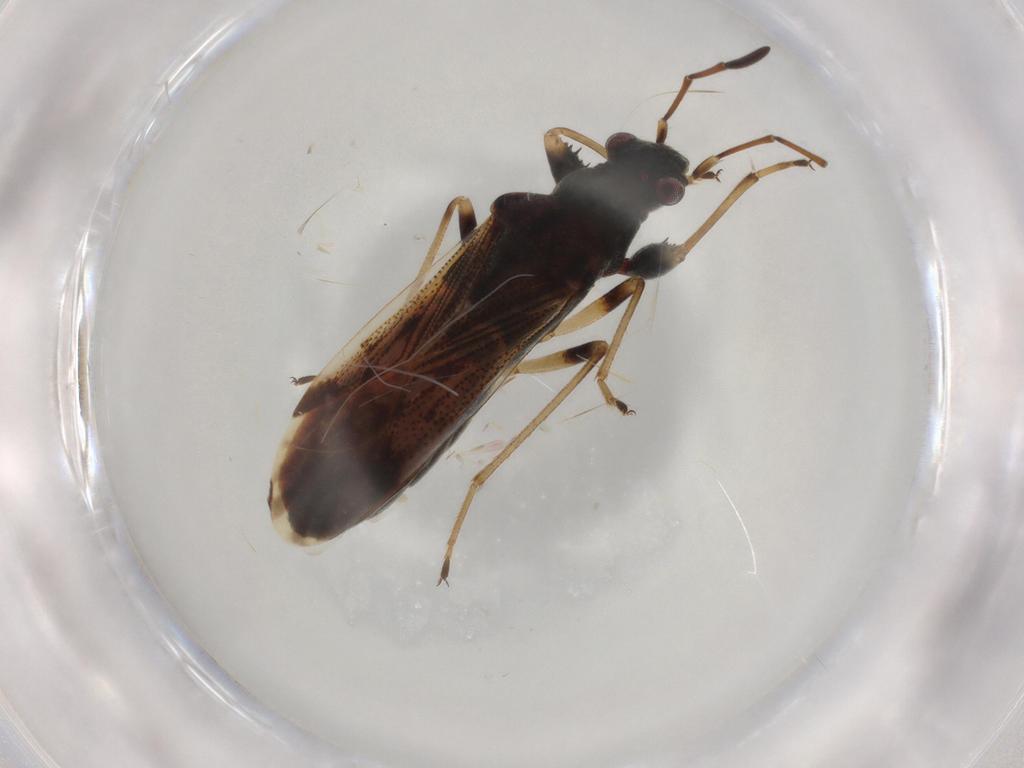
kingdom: Animalia
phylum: Arthropoda
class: Insecta
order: Hemiptera
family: Rhyparochromidae
